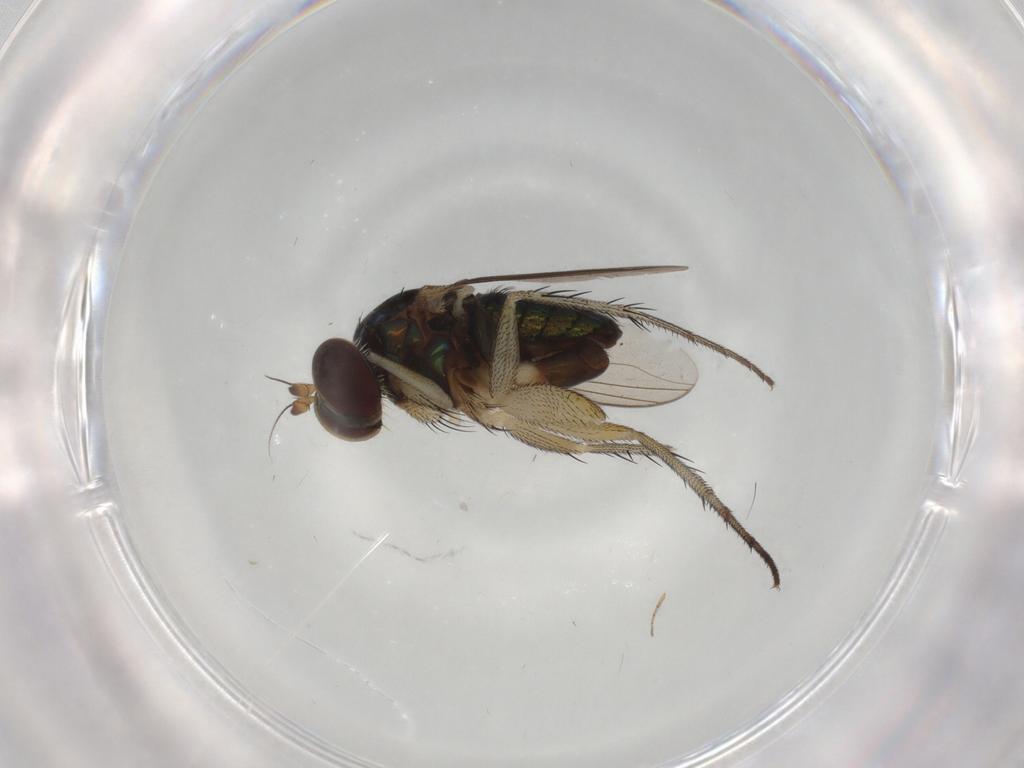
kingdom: Animalia
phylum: Arthropoda
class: Insecta
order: Diptera
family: Dolichopodidae
